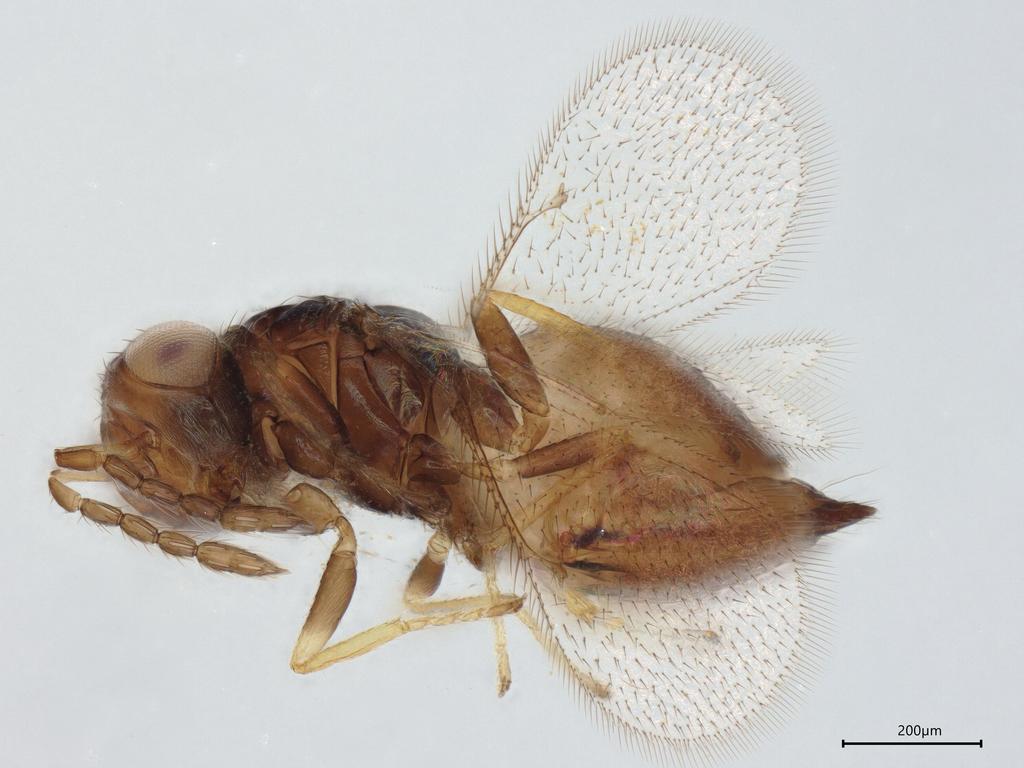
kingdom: Animalia
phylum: Arthropoda
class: Insecta
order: Hymenoptera
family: Eulophidae
